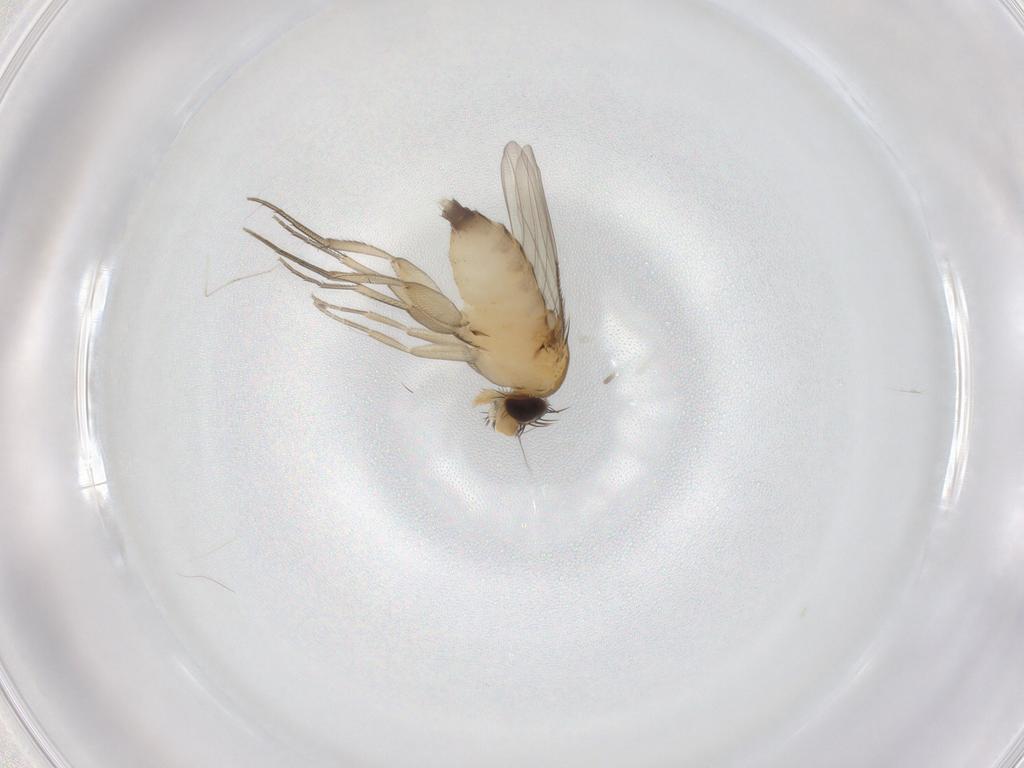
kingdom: Animalia
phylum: Arthropoda
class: Insecta
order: Diptera
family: Phoridae
